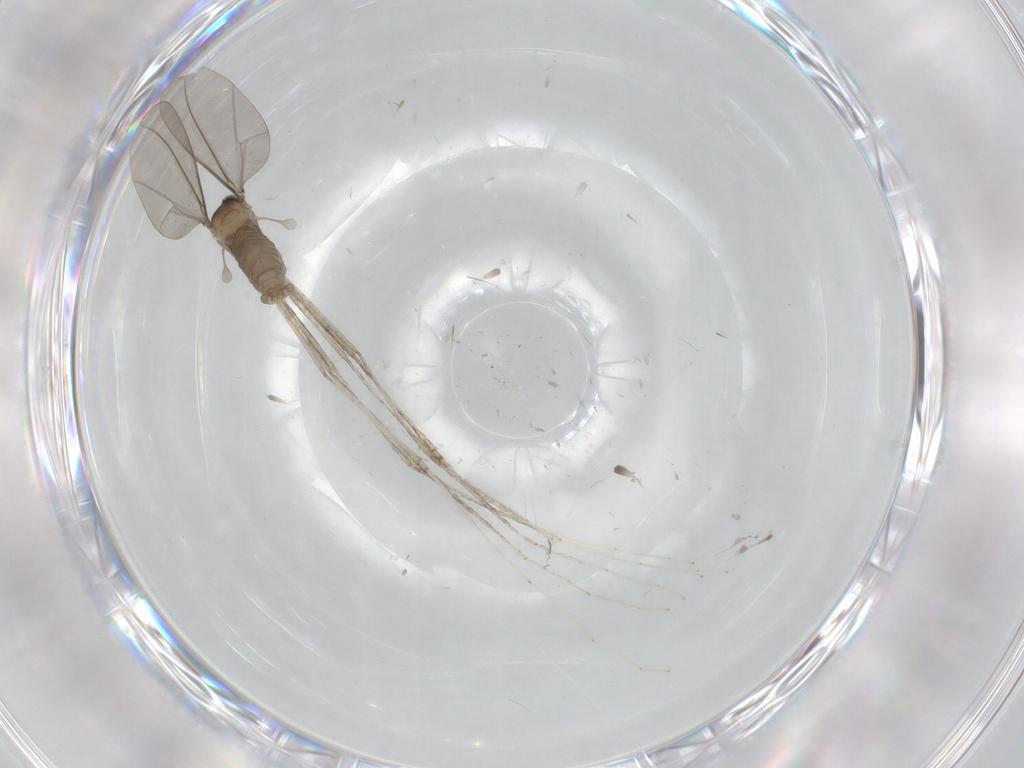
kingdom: Animalia
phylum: Arthropoda
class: Insecta
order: Diptera
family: Cecidomyiidae
